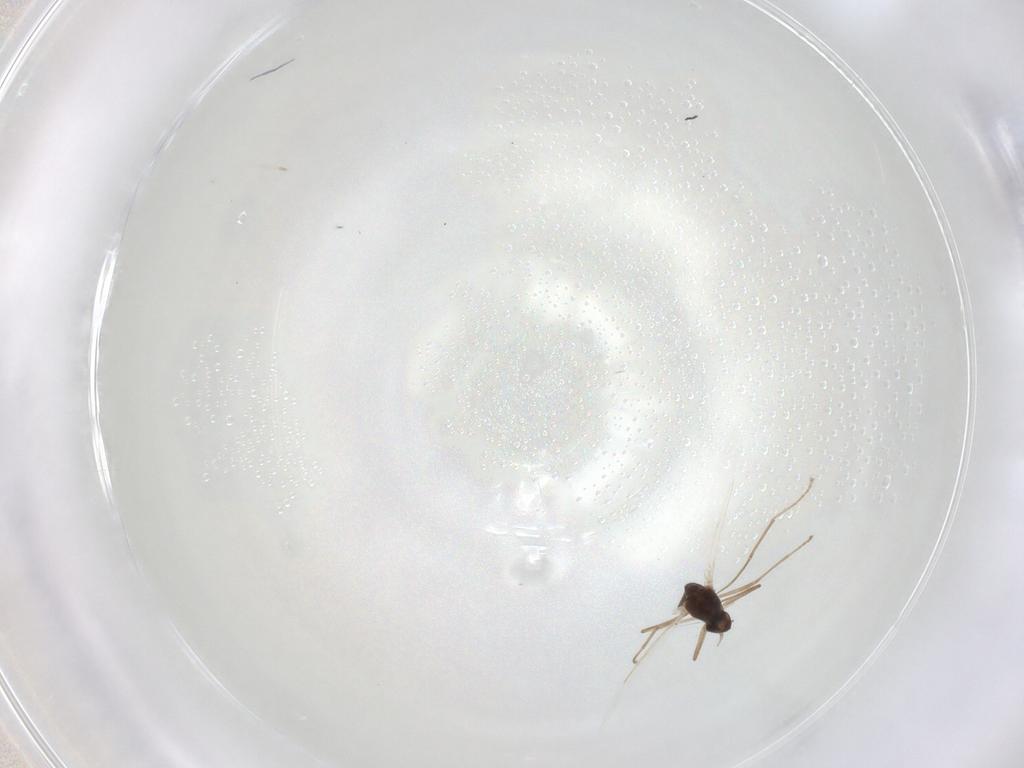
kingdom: Animalia
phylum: Arthropoda
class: Insecta
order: Diptera
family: Cecidomyiidae
